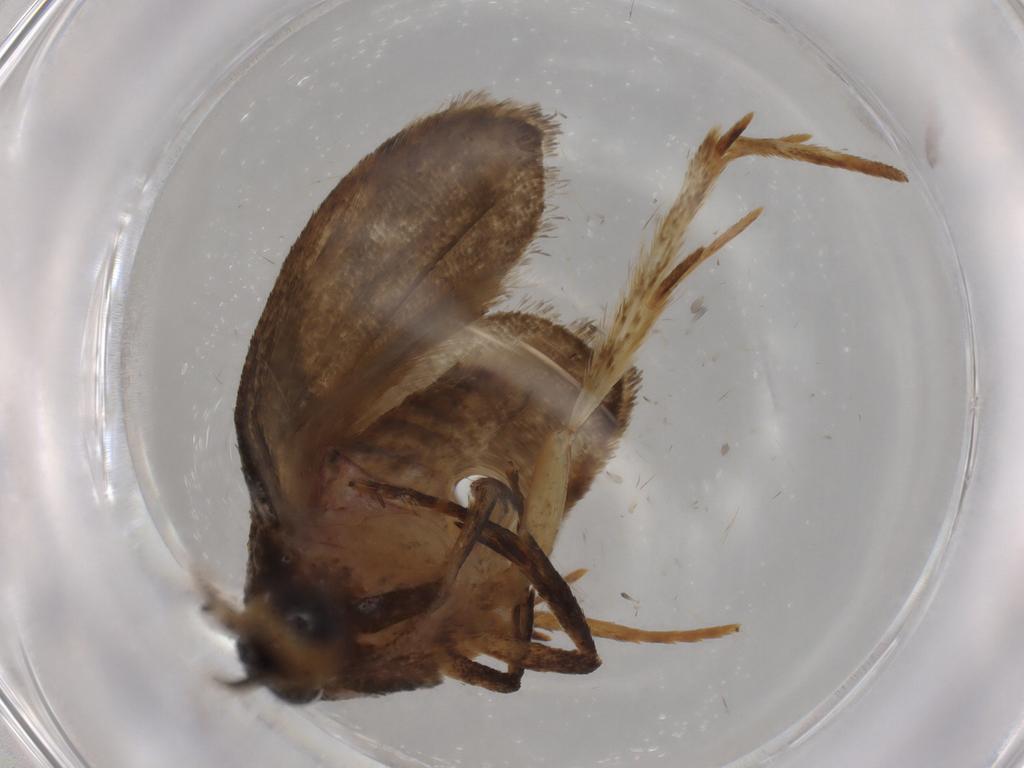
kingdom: Animalia
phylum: Arthropoda
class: Insecta
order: Lepidoptera
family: Autostichidae
